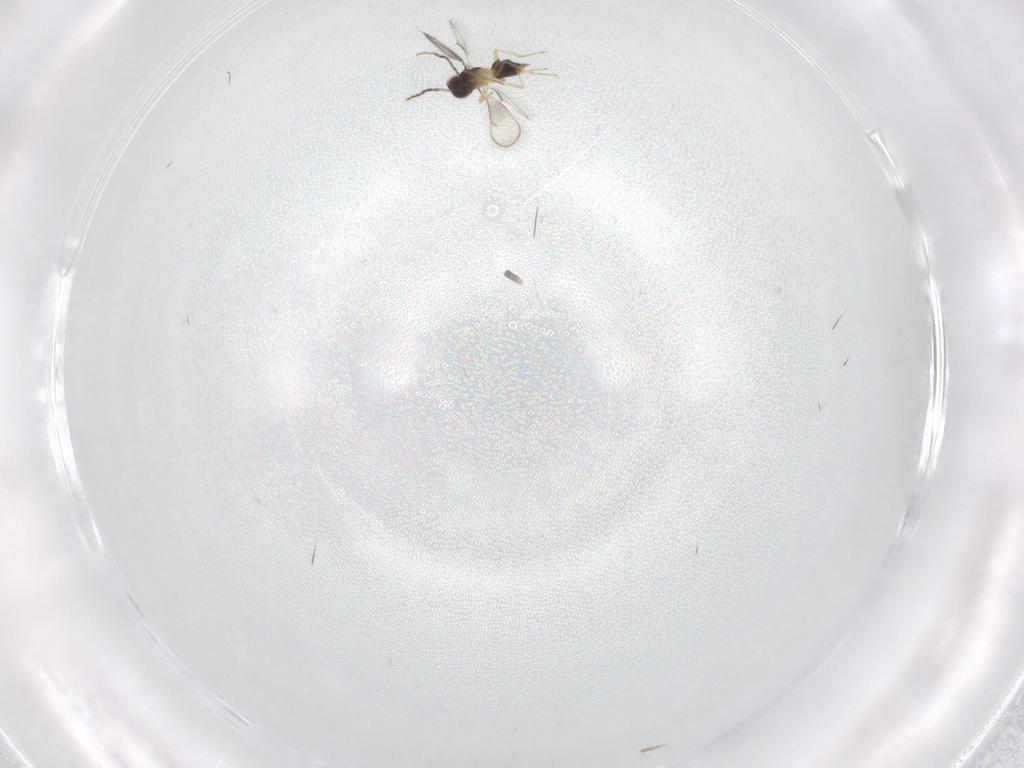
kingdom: Animalia
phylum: Arthropoda
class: Insecta
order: Hymenoptera
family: Eulophidae
